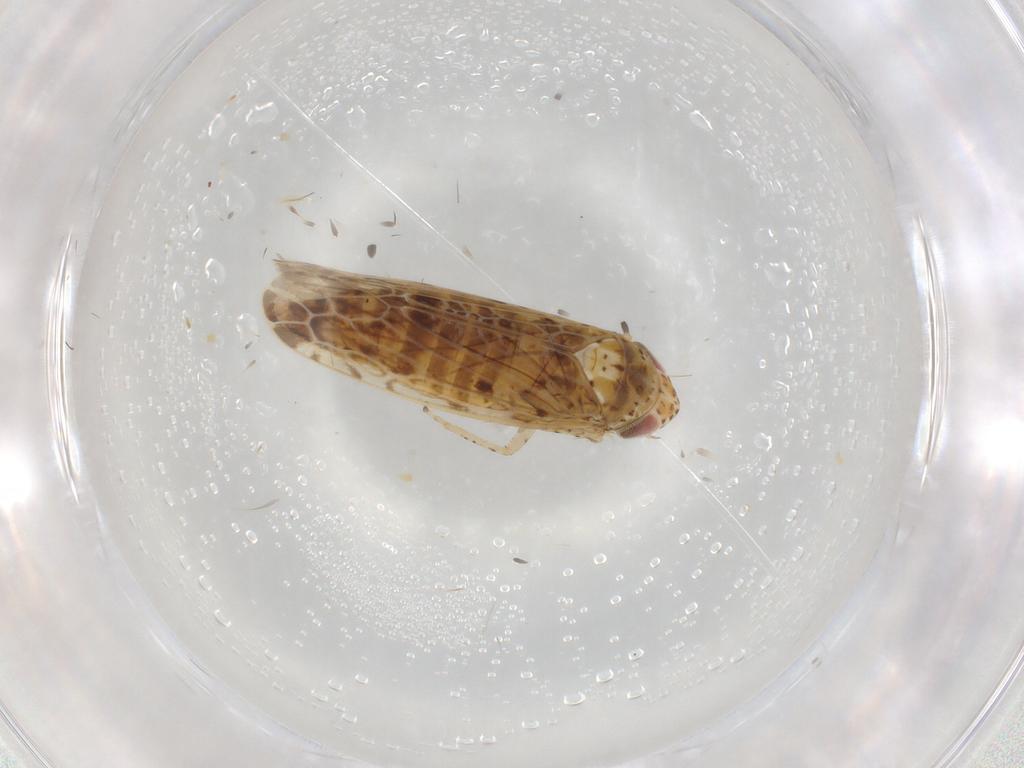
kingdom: Animalia
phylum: Arthropoda
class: Insecta
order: Hemiptera
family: Cicadellidae
